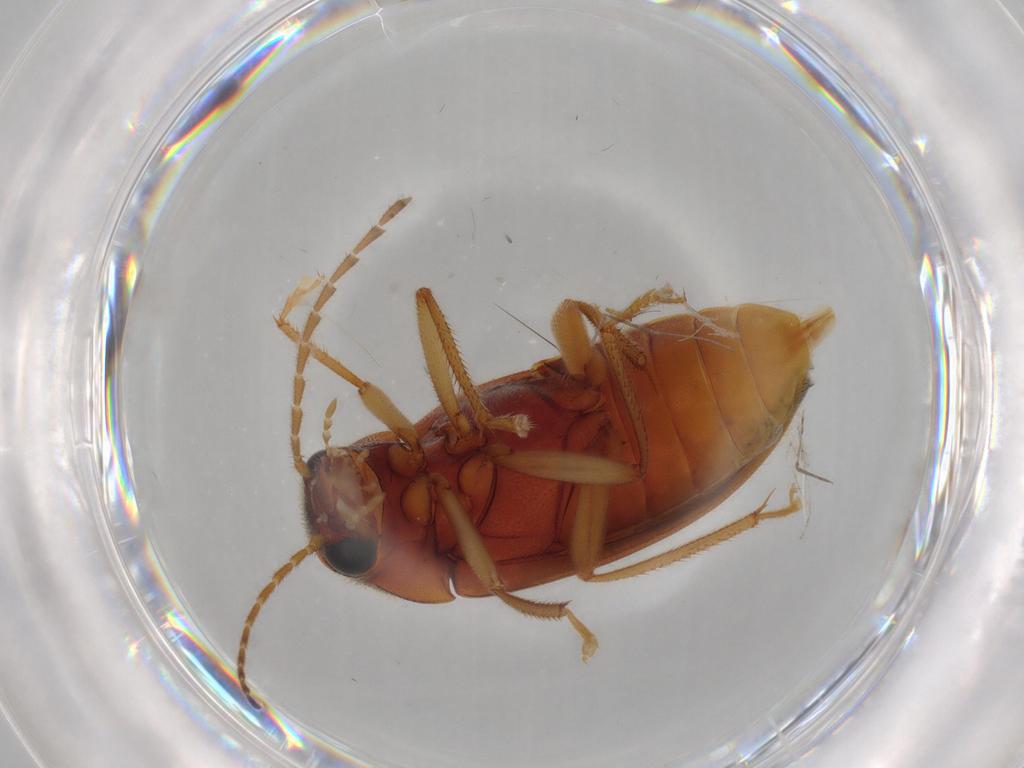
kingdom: Animalia
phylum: Arthropoda
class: Insecta
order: Coleoptera
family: Ptilodactylidae
